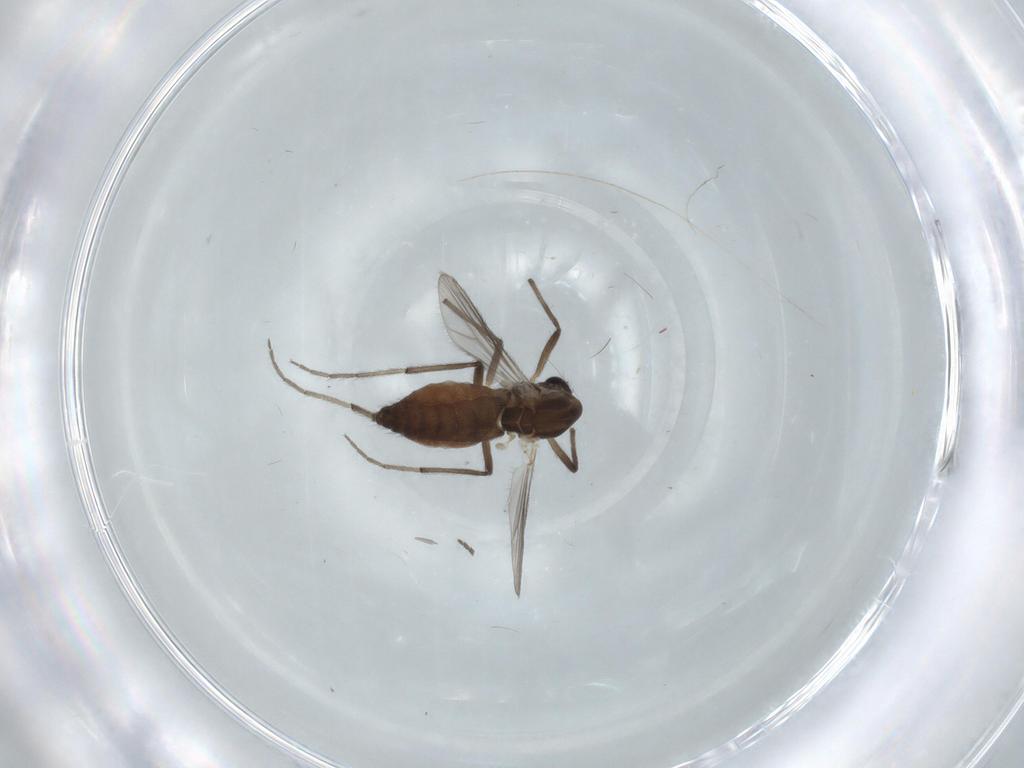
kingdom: Animalia
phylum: Arthropoda
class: Insecta
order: Diptera
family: Chironomidae
